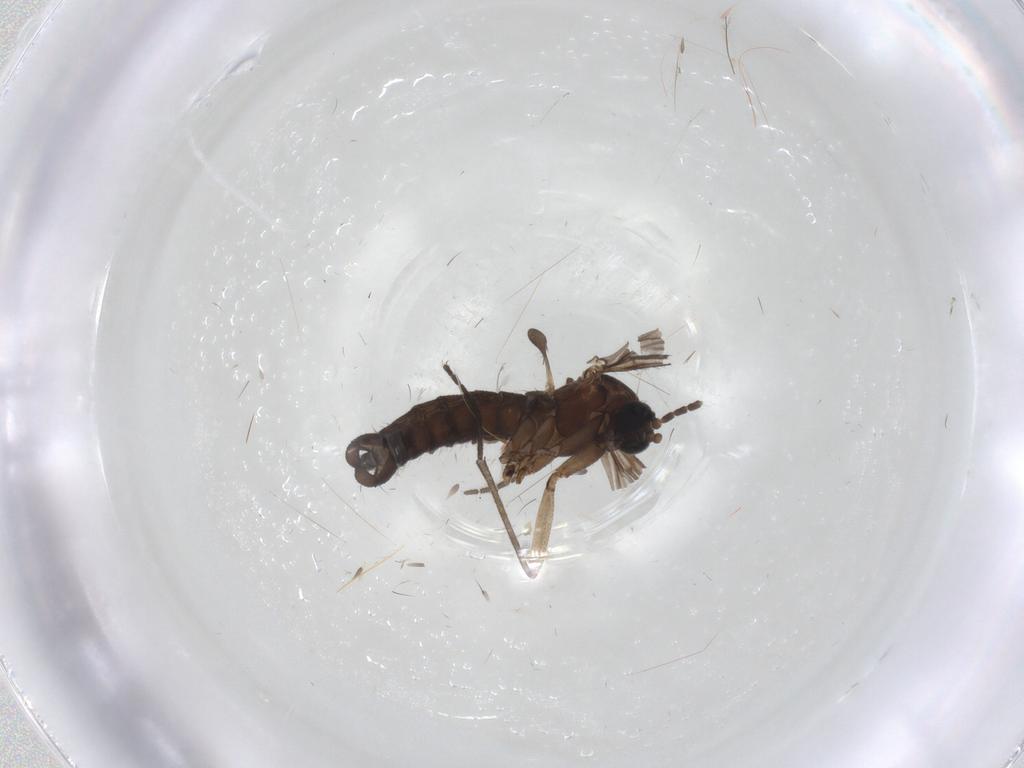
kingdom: Animalia
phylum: Arthropoda
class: Insecta
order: Diptera
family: Sciaridae
